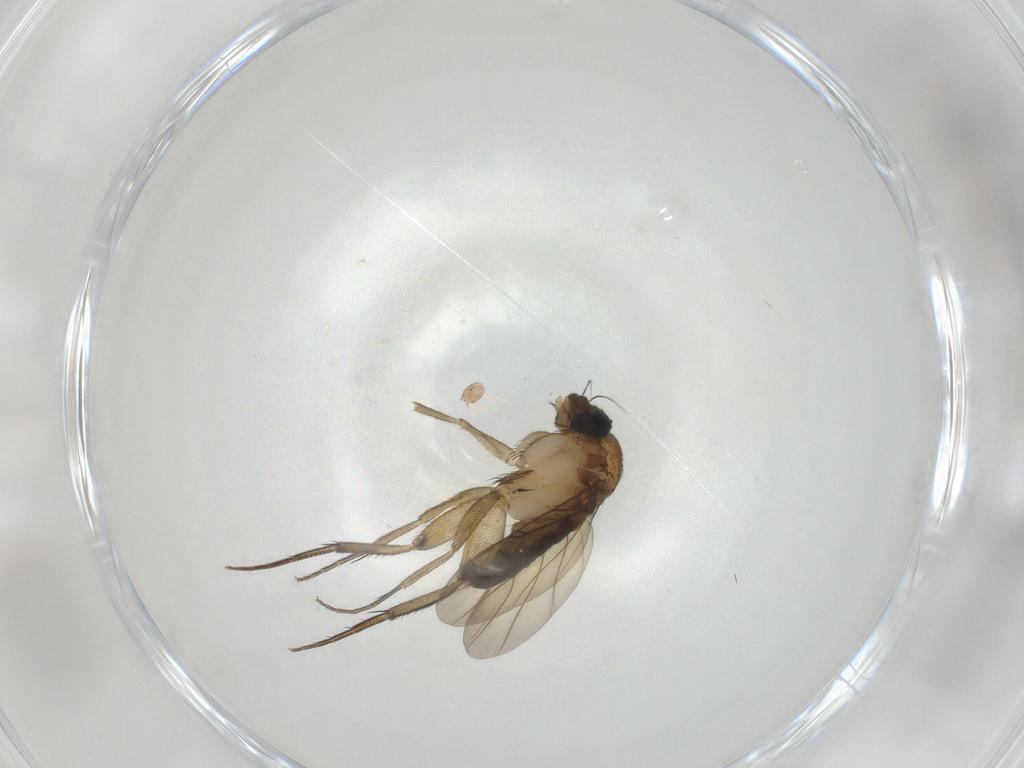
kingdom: Animalia
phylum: Arthropoda
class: Insecta
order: Diptera
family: Phoridae
